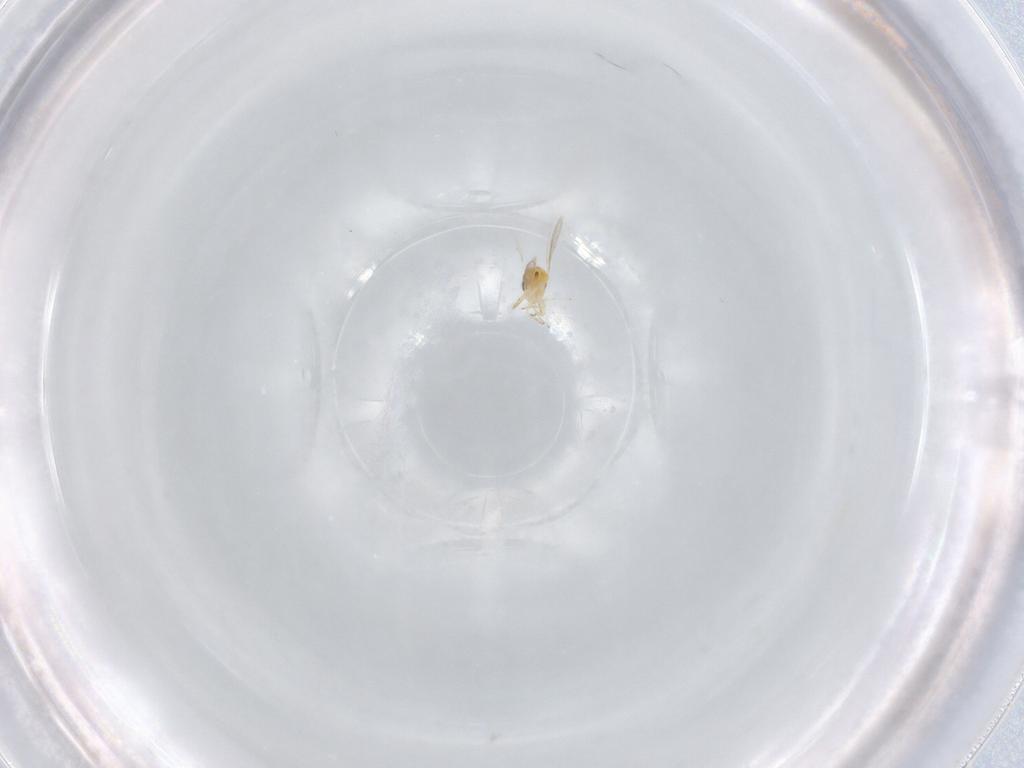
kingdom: Animalia
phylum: Arthropoda
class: Insecta
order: Hymenoptera
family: Aphelinidae
